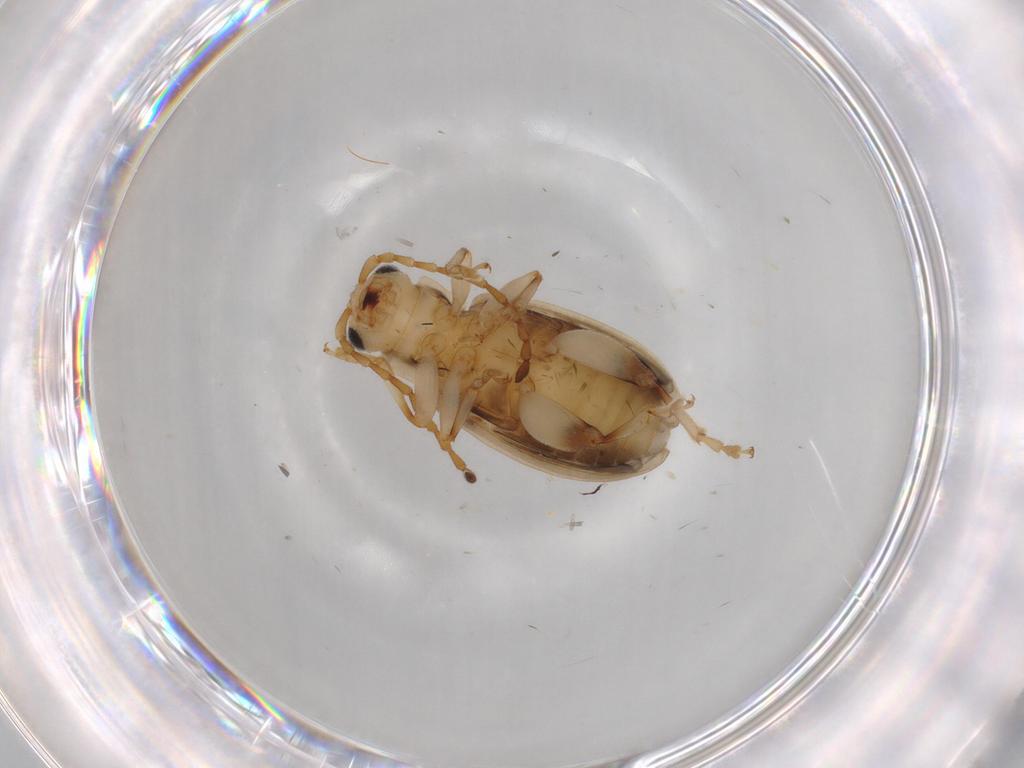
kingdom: Animalia
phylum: Arthropoda
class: Insecta
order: Coleoptera
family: Chrysomelidae
